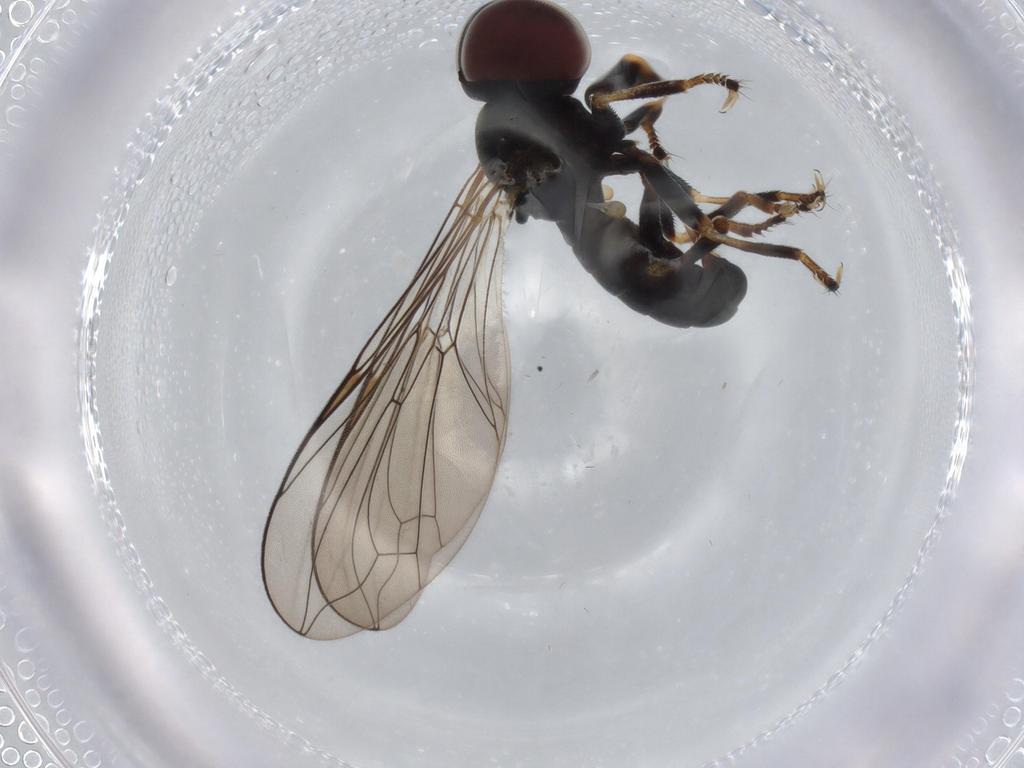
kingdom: Animalia
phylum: Arthropoda
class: Insecta
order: Diptera
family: Pipunculidae
